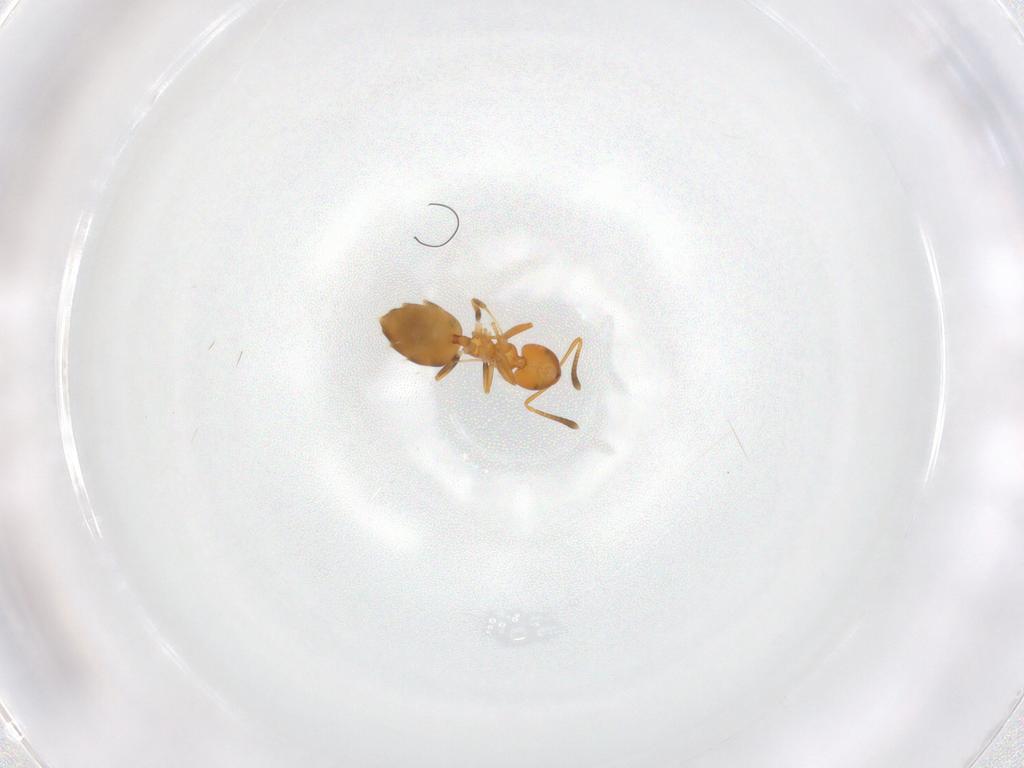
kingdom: Animalia
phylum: Arthropoda
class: Insecta
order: Hymenoptera
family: Formicidae
